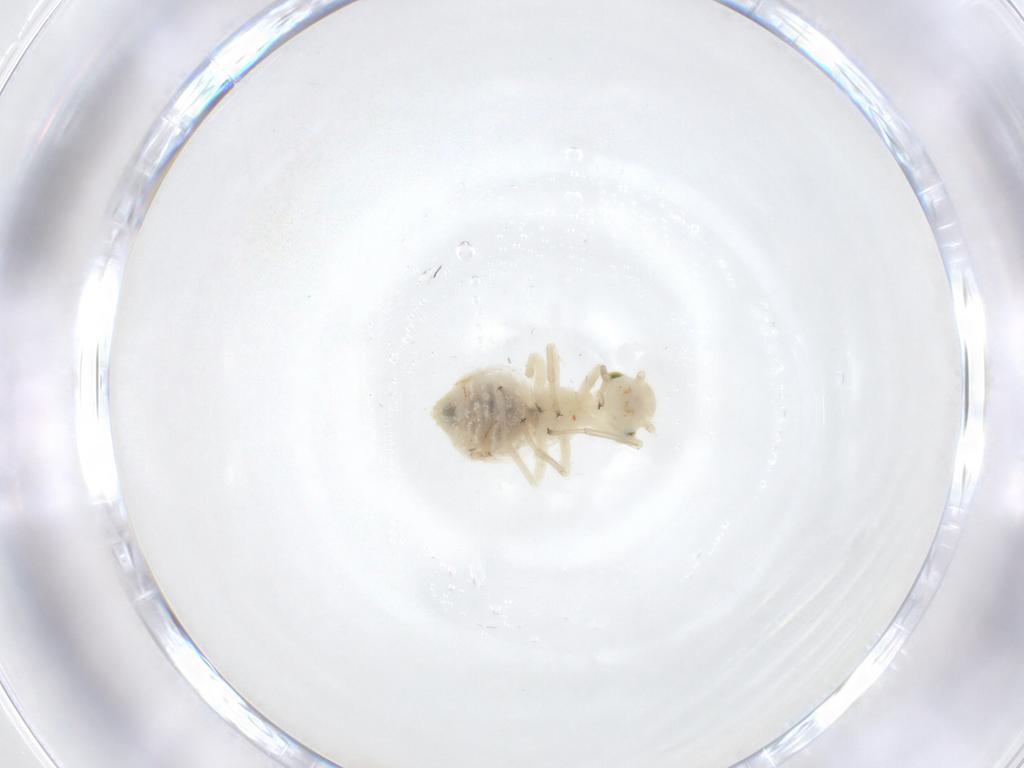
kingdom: Animalia
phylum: Arthropoda
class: Insecta
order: Psocodea
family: Caeciliusidae
